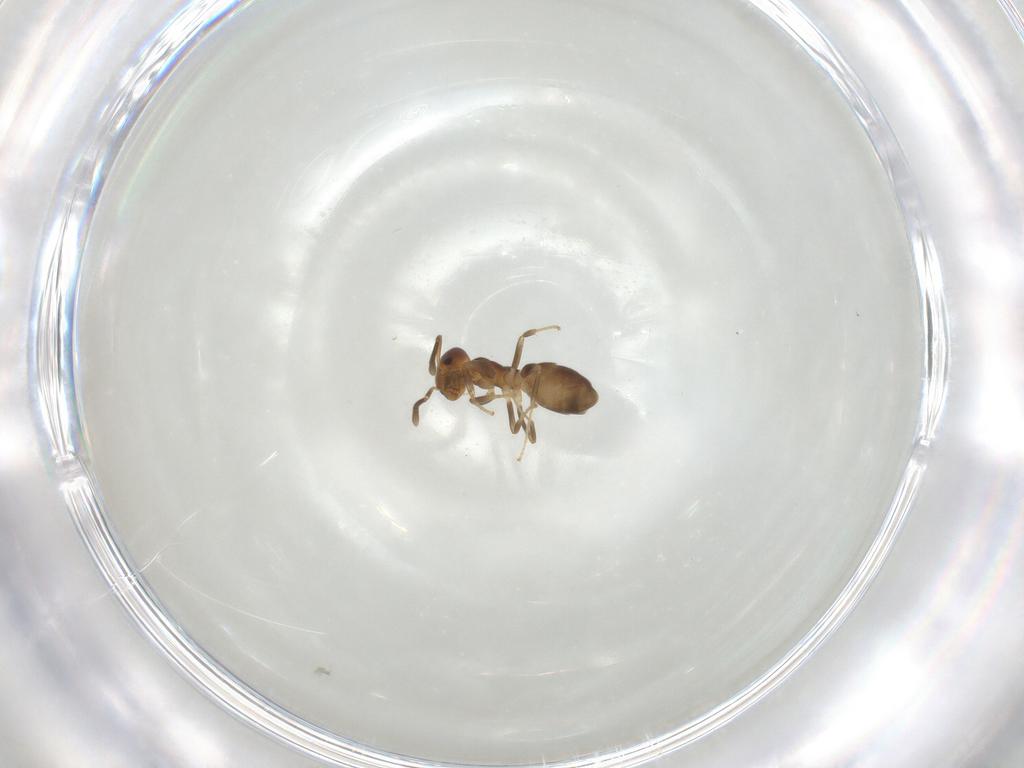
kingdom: Animalia
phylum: Arthropoda
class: Insecta
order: Hymenoptera
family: Formicidae
